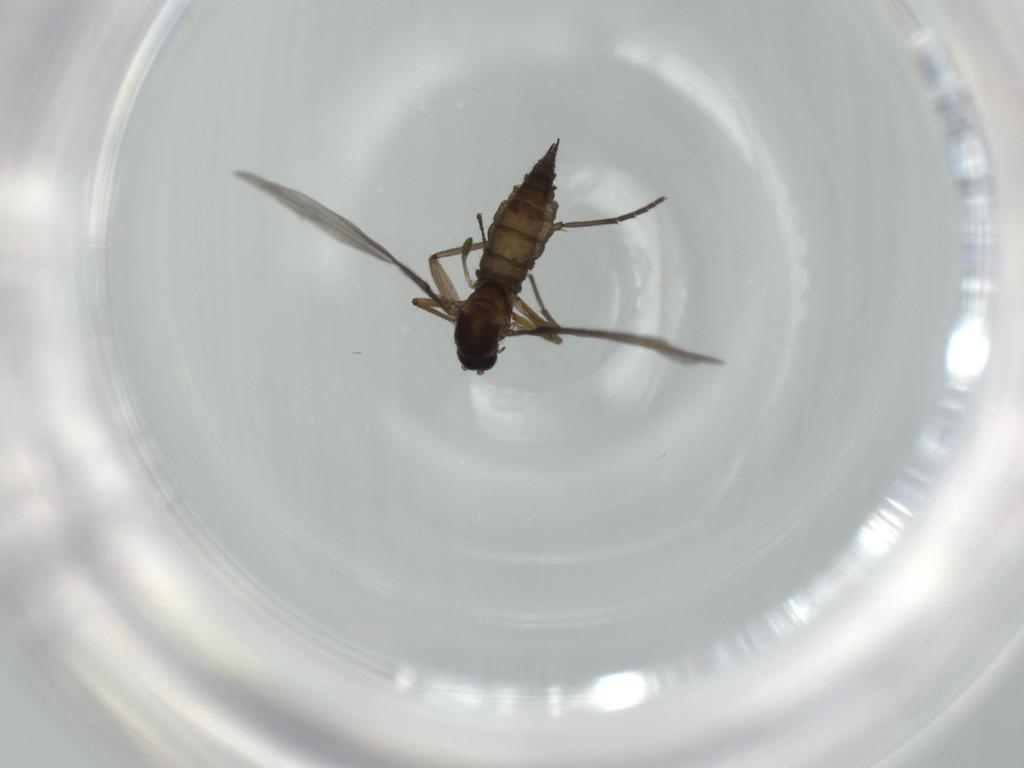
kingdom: Animalia
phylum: Arthropoda
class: Insecta
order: Diptera
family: Sciaridae
